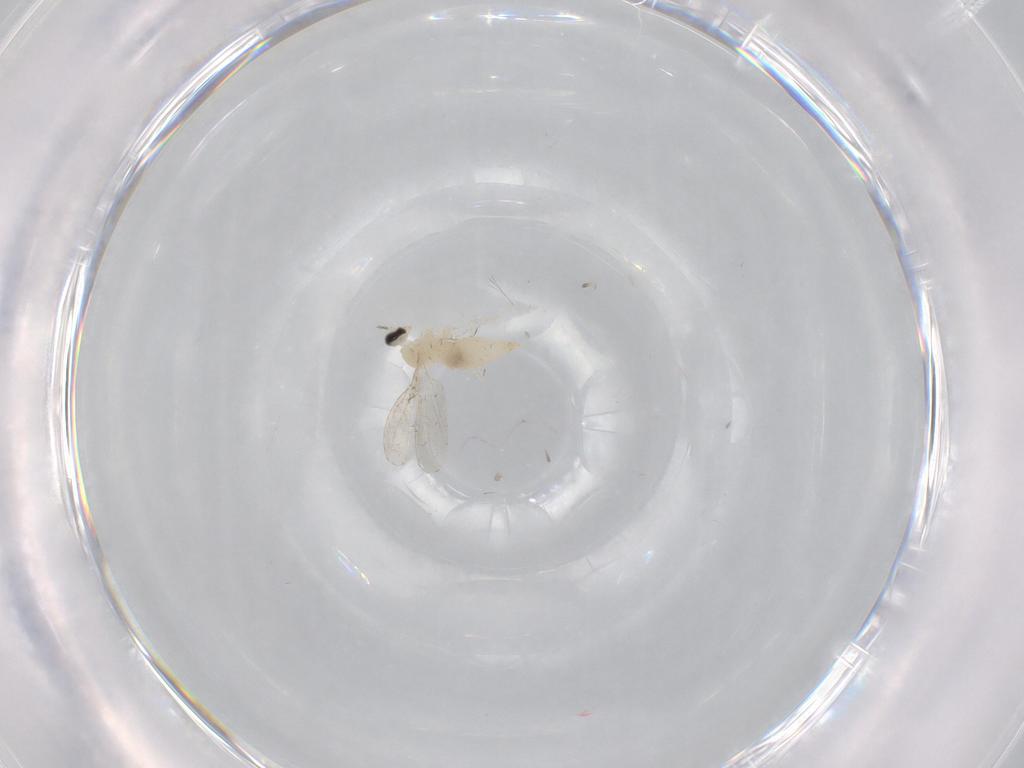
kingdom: Animalia
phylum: Arthropoda
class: Insecta
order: Diptera
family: Cecidomyiidae
